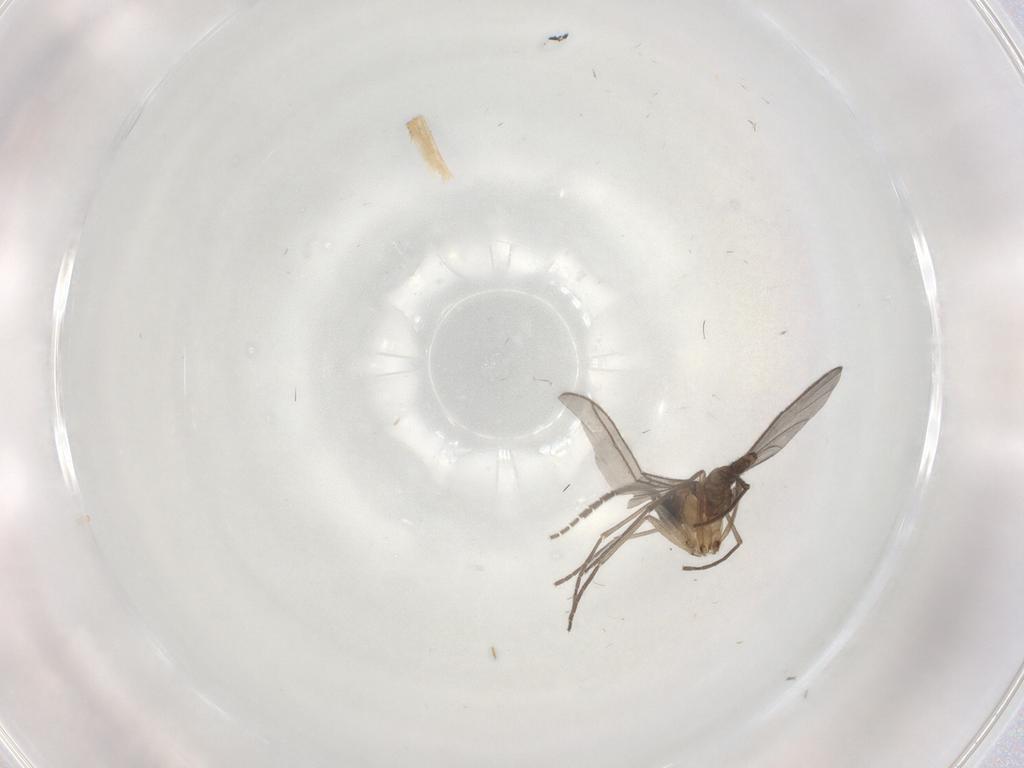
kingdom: Animalia
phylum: Arthropoda
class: Insecta
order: Diptera
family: Sciaridae
